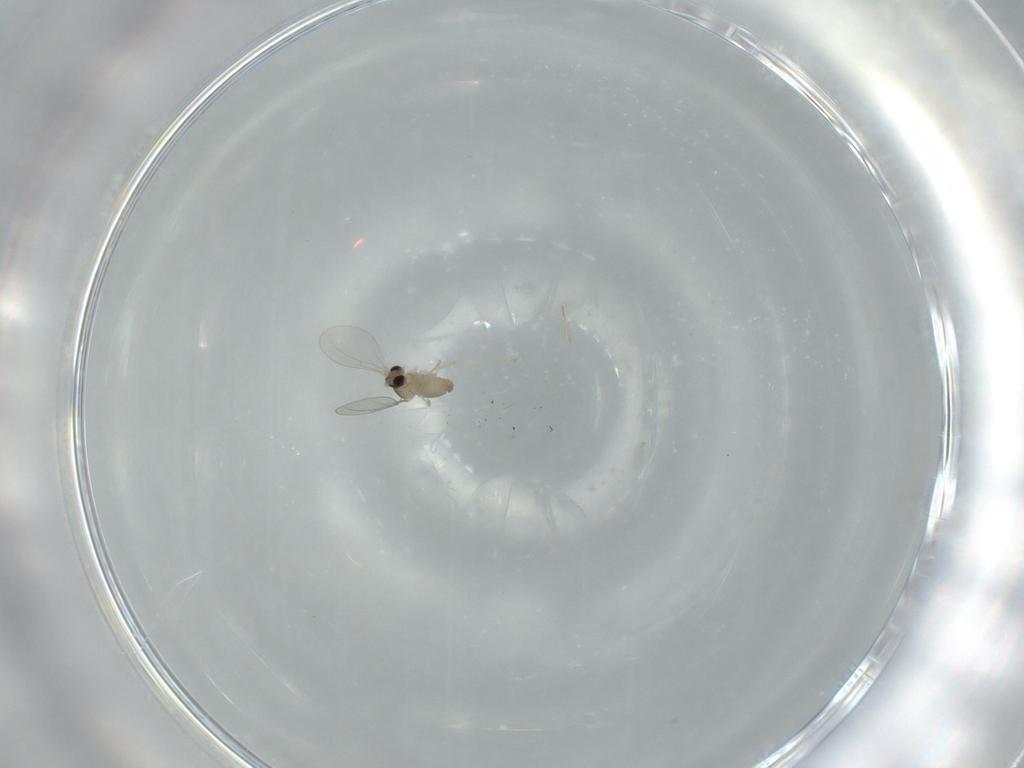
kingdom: Animalia
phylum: Arthropoda
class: Insecta
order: Diptera
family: Cecidomyiidae
